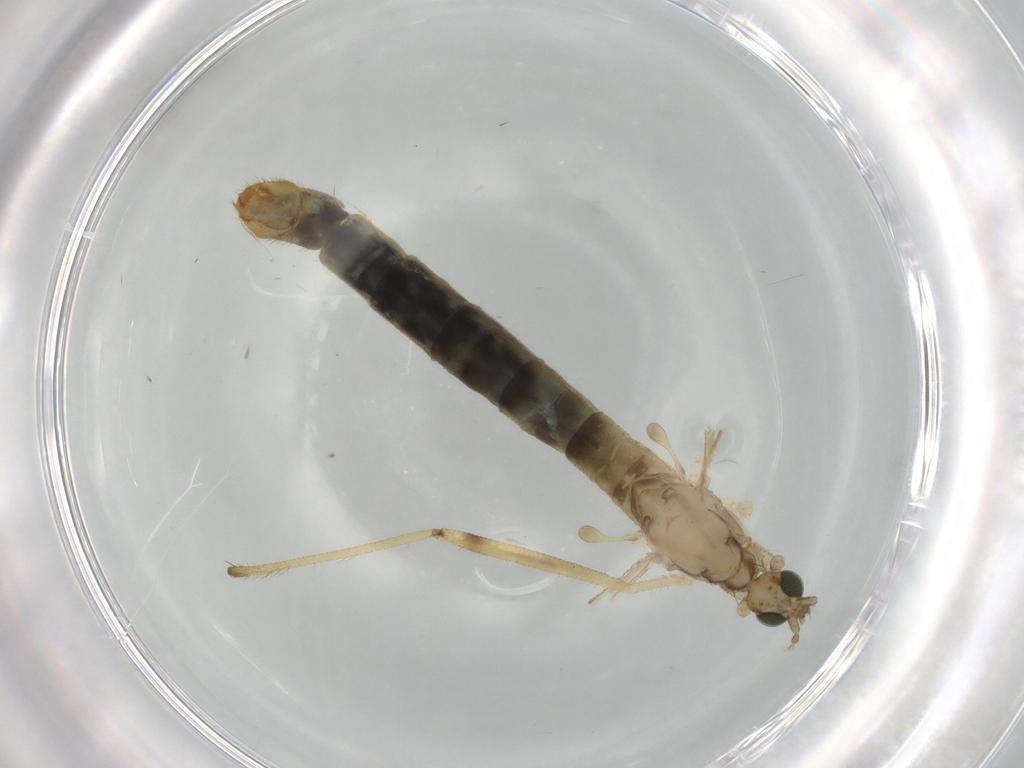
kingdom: Animalia
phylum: Arthropoda
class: Insecta
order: Diptera
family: Limoniidae
